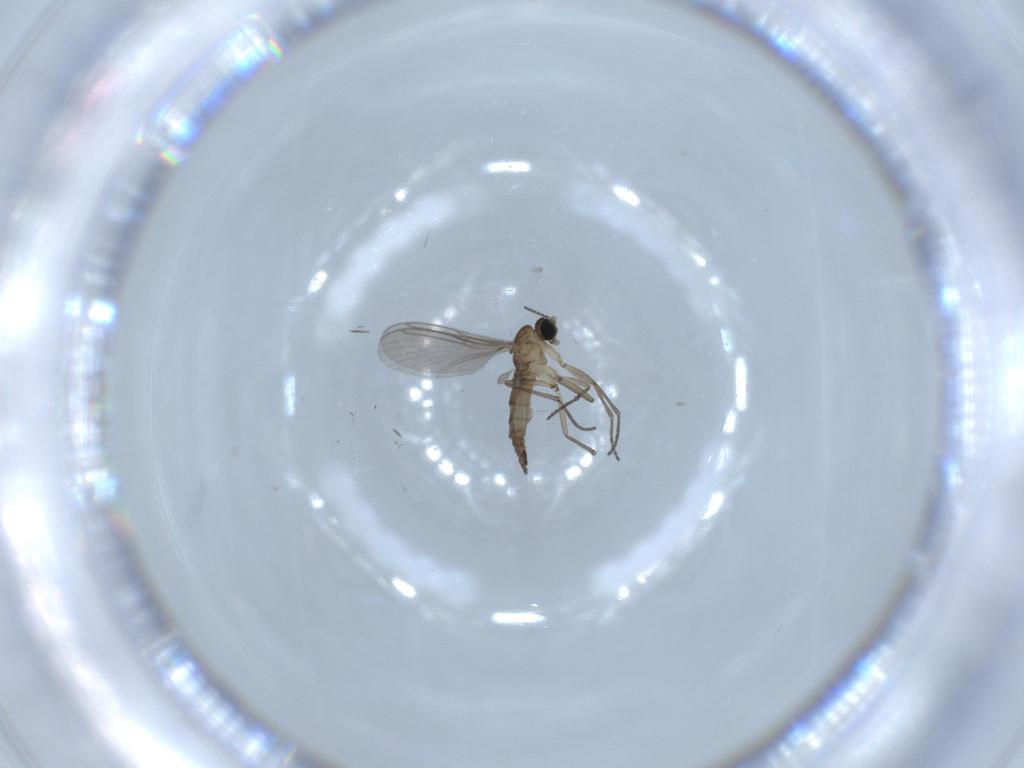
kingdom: Animalia
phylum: Arthropoda
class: Insecta
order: Diptera
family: Sciaridae
